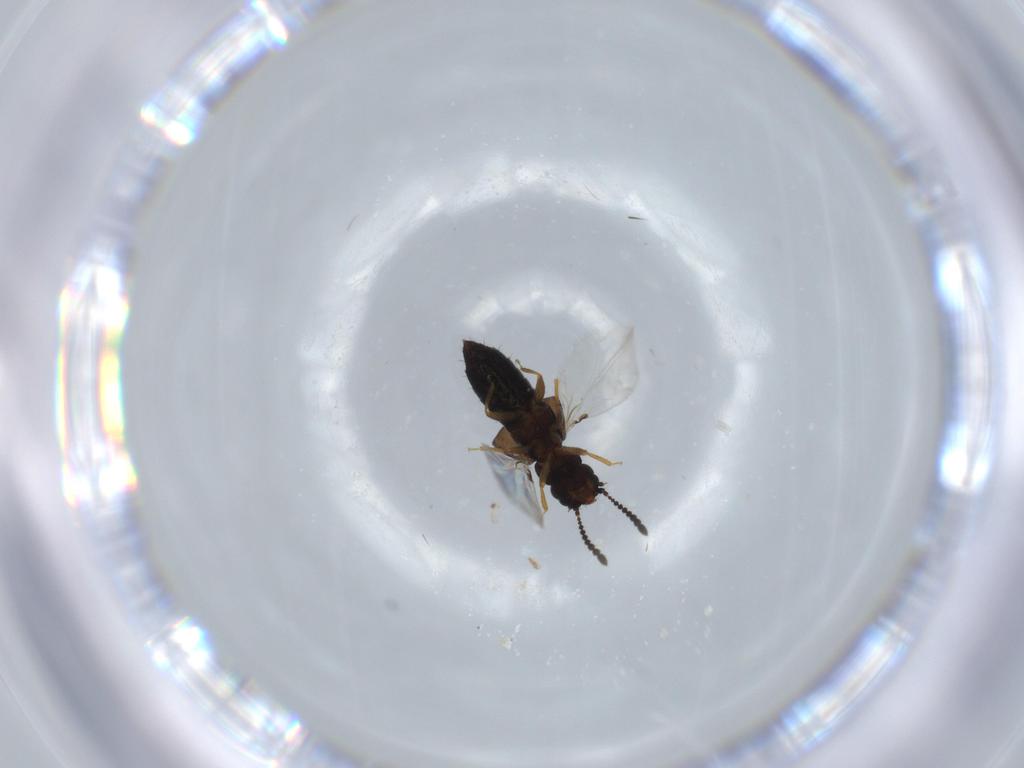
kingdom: Animalia
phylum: Arthropoda
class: Insecta
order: Coleoptera
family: Staphylinidae
